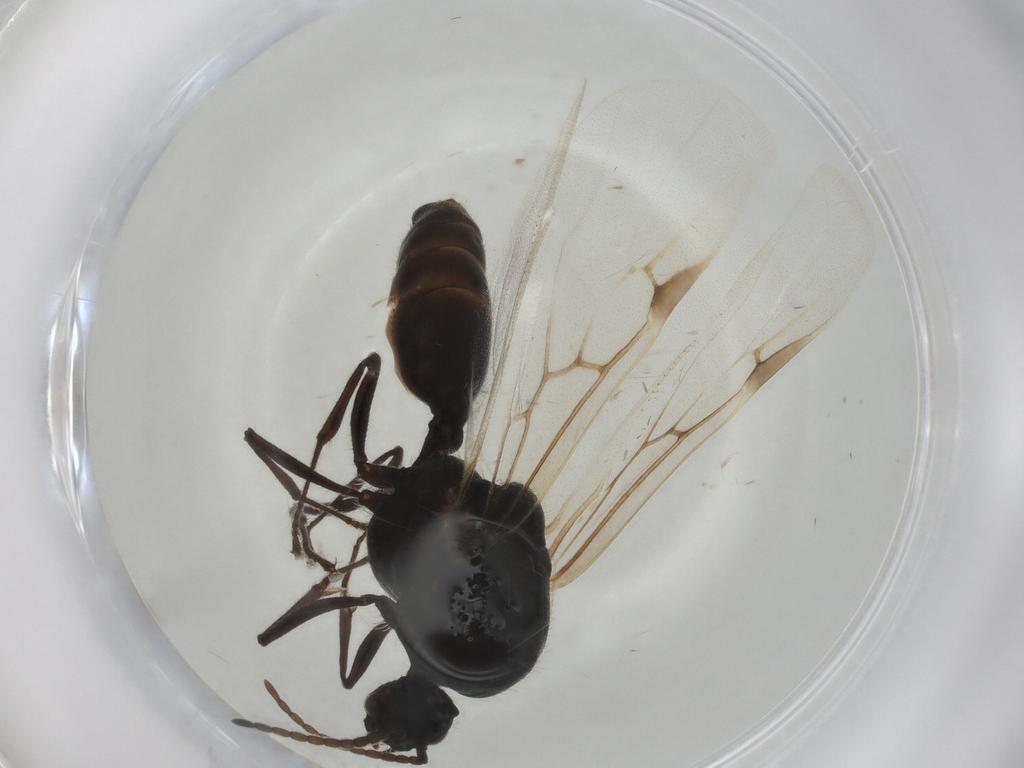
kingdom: Animalia
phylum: Arthropoda
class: Insecta
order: Hymenoptera
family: Formicidae
